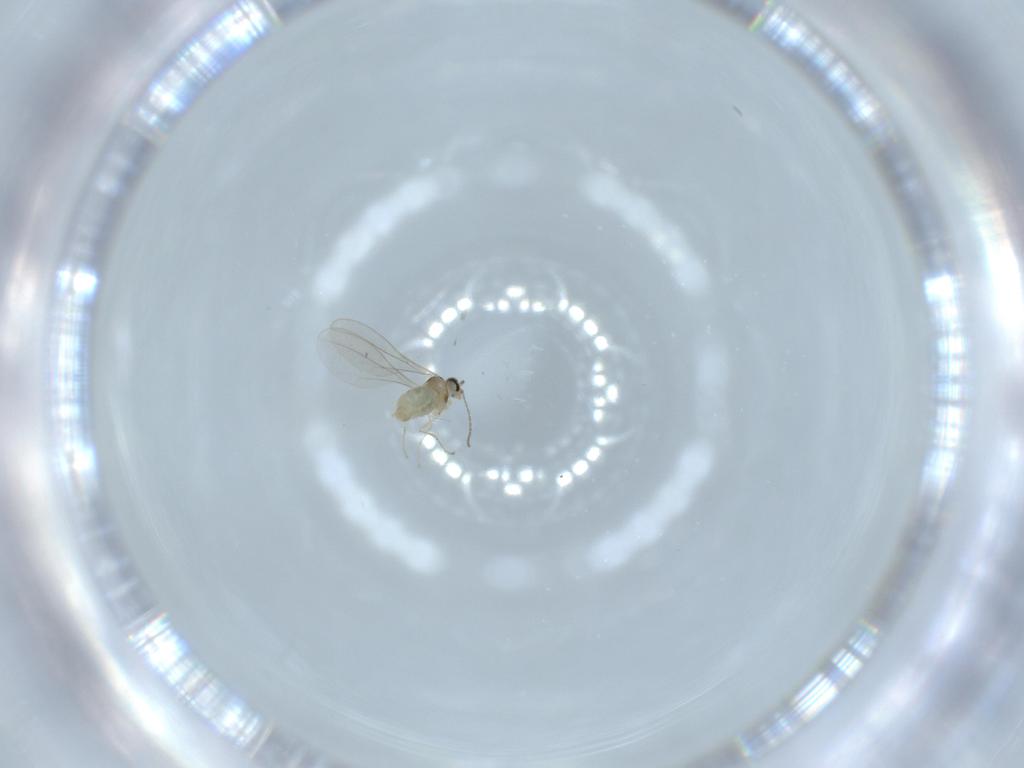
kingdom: Animalia
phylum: Arthropoda
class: Insecta
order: Diptera
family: Cecidomyiidae
